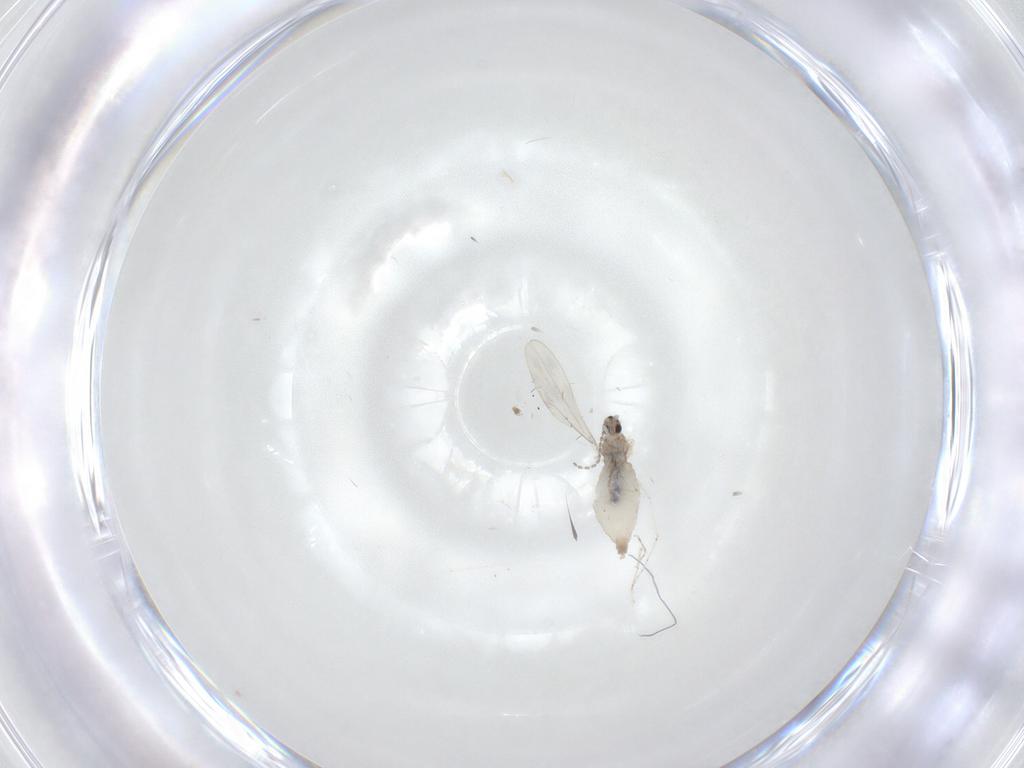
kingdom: Animalia
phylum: Arthropoda
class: Insecta
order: Diptera
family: Cecidomyiidae
